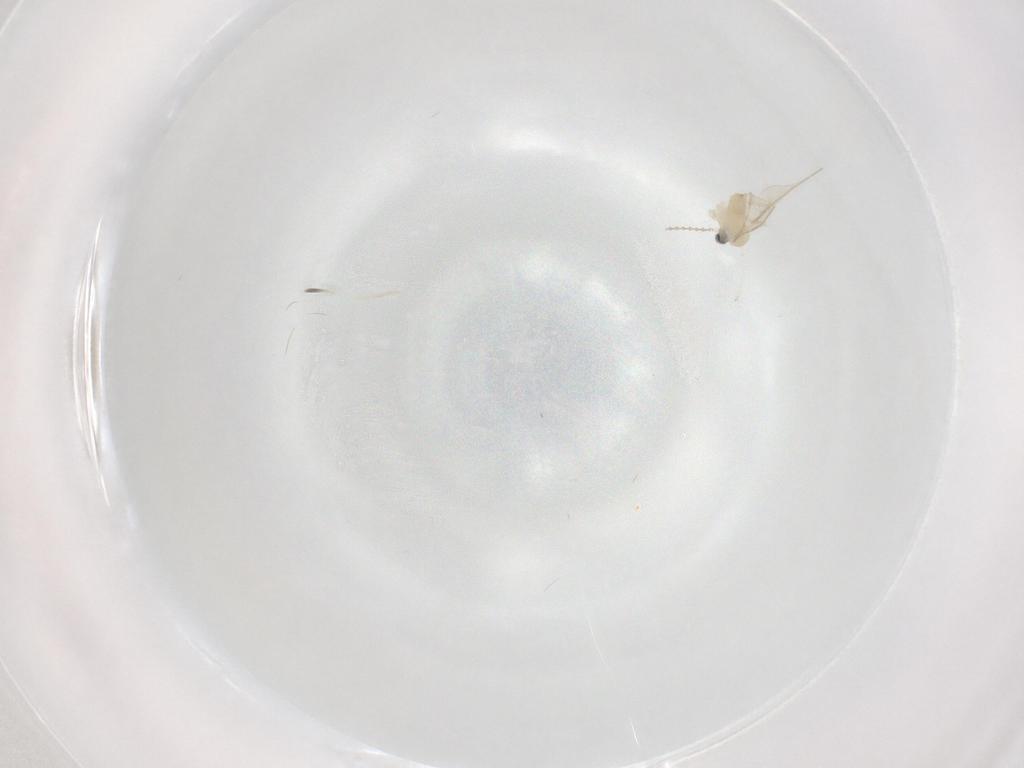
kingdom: Animalia
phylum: Arthropoda
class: Insecta
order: Diptera
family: Cecidomyiidae
